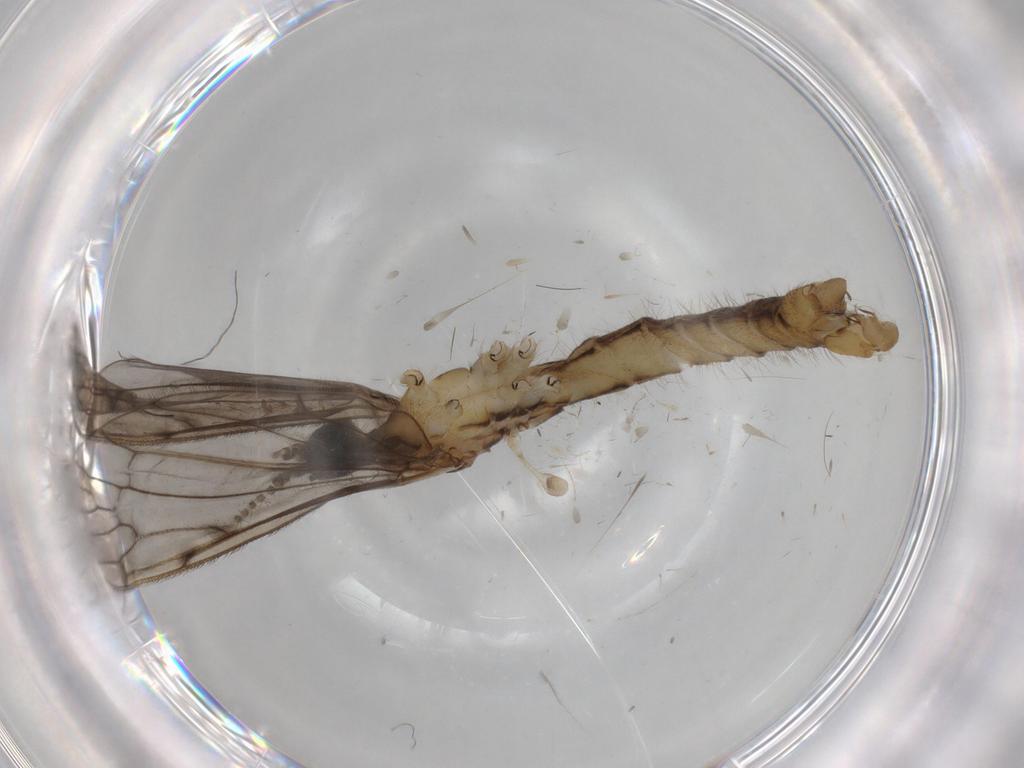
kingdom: Animalia
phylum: Arthropoda
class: Insecta
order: Diptera
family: Cecidomyiidae
